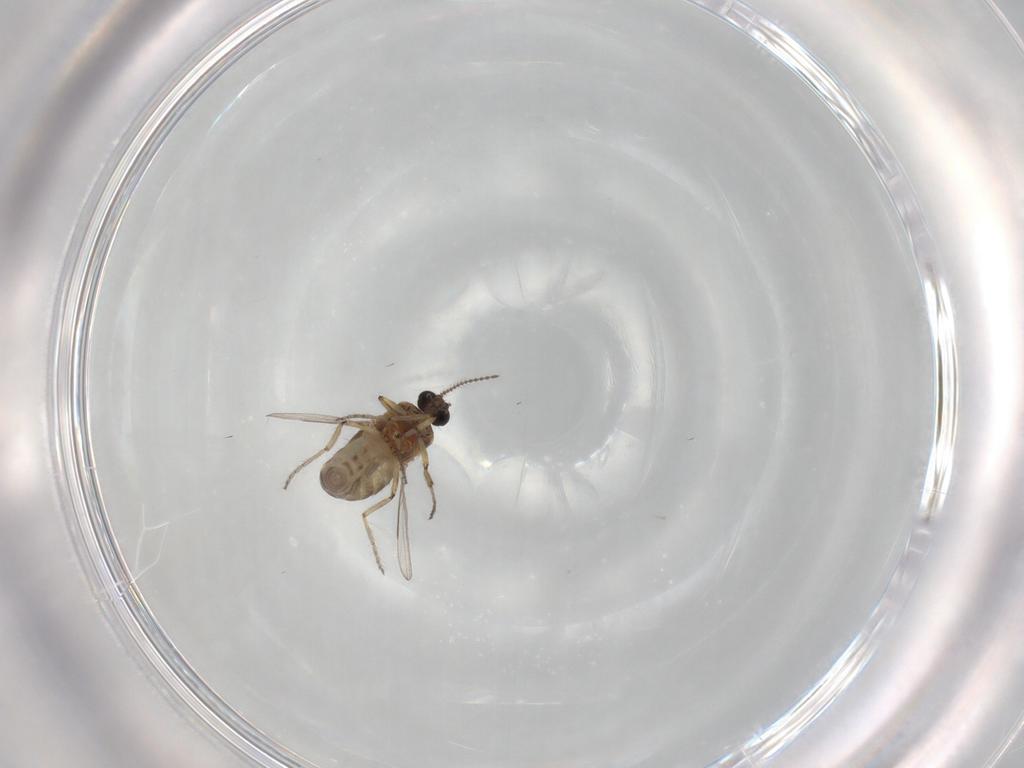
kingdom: Animalia
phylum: Arthropoda
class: Insecta
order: Diptera
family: Ceratopogonidae
